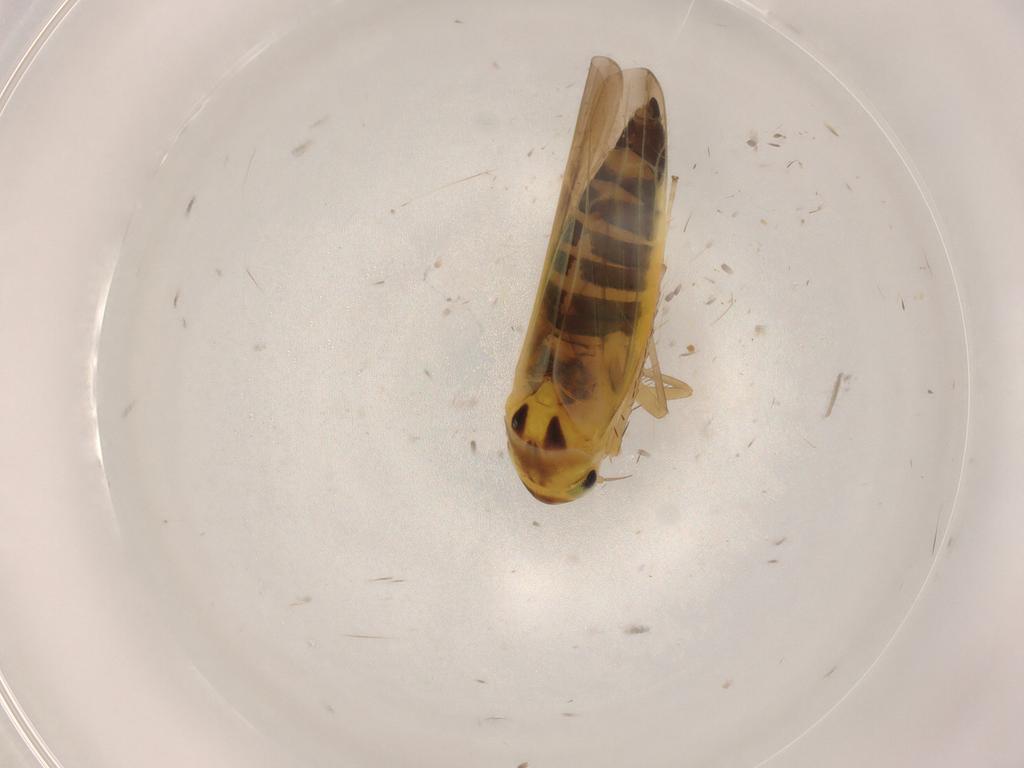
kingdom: Animalia
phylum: Arthropoda
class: Insecta
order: Hemiptera
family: Cicadellidae
